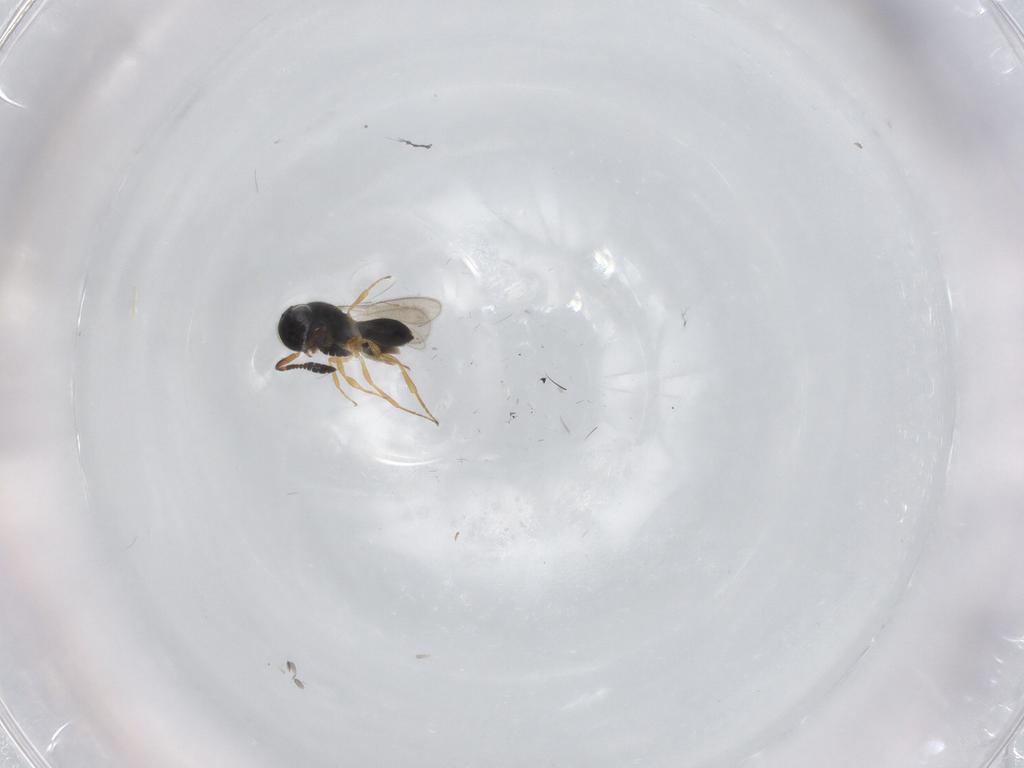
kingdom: Animalia
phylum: Arthropoda
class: Insecta
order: Hymenoptera
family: Scelionidae
